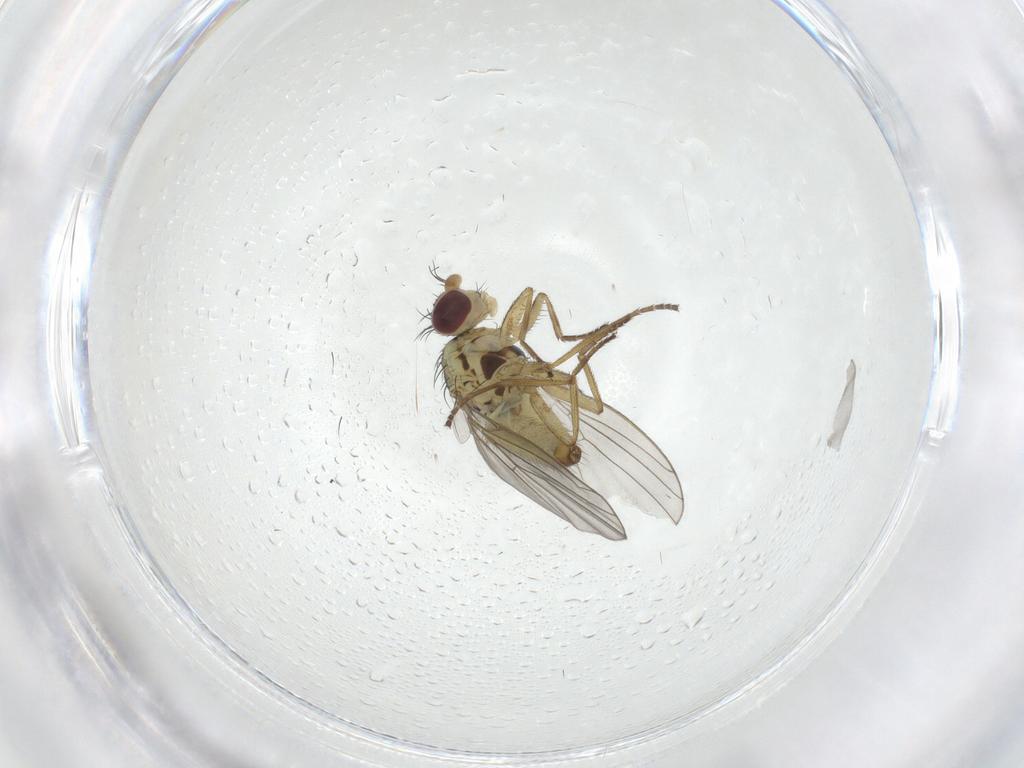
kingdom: Animalia
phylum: Arthropoda
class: Insecta
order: Diptera
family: Agromyzidae
